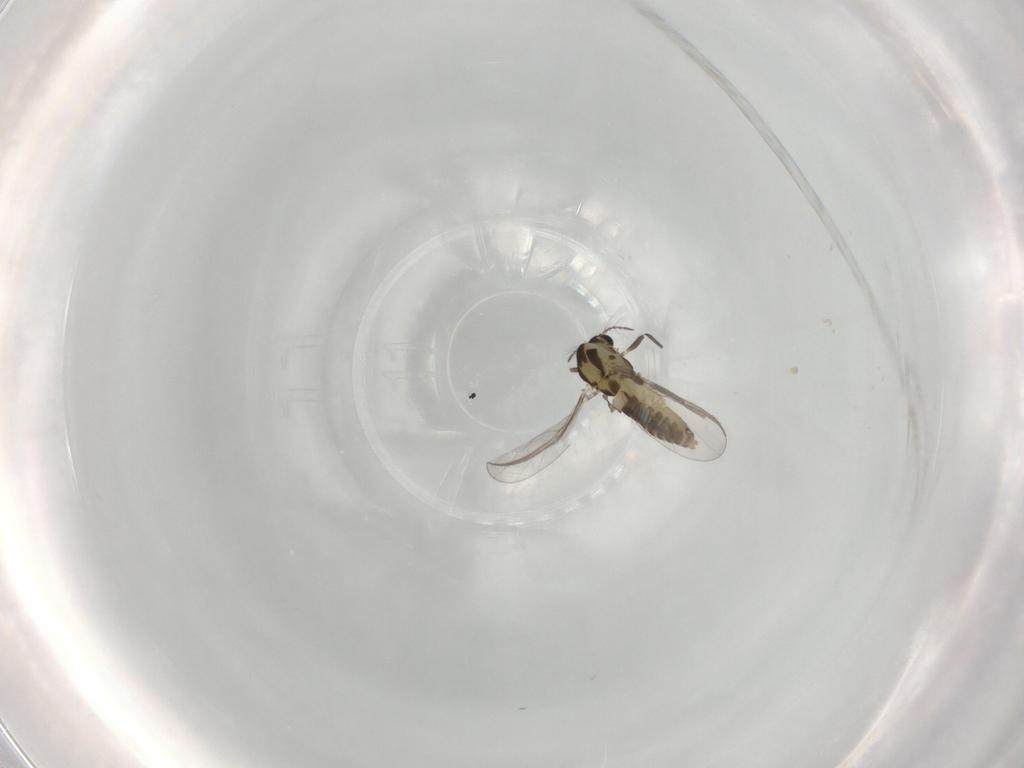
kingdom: Animalia
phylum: Arthropoda
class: Insecta
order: Diptera
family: Chironomidae
